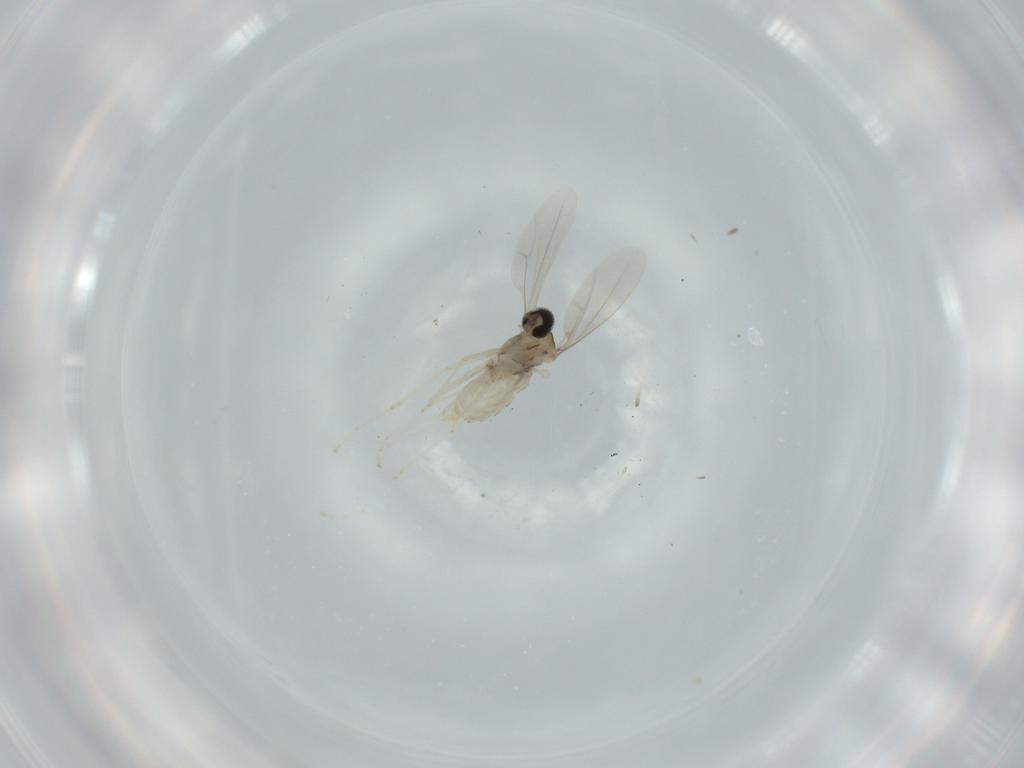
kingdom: Animalia
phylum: Arthropoda
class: Insecta
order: Diptera
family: Cecidomyiidae
